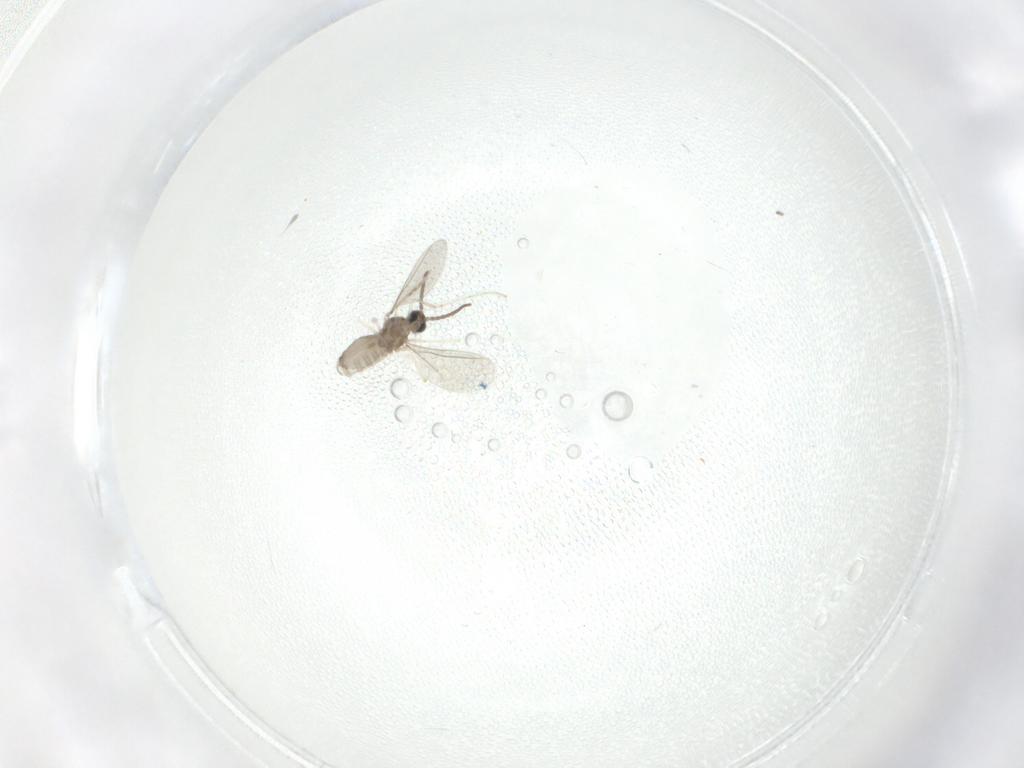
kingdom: Animalia
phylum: Arthropoda
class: Insecta
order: Diptera
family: Cecidomyiidae
